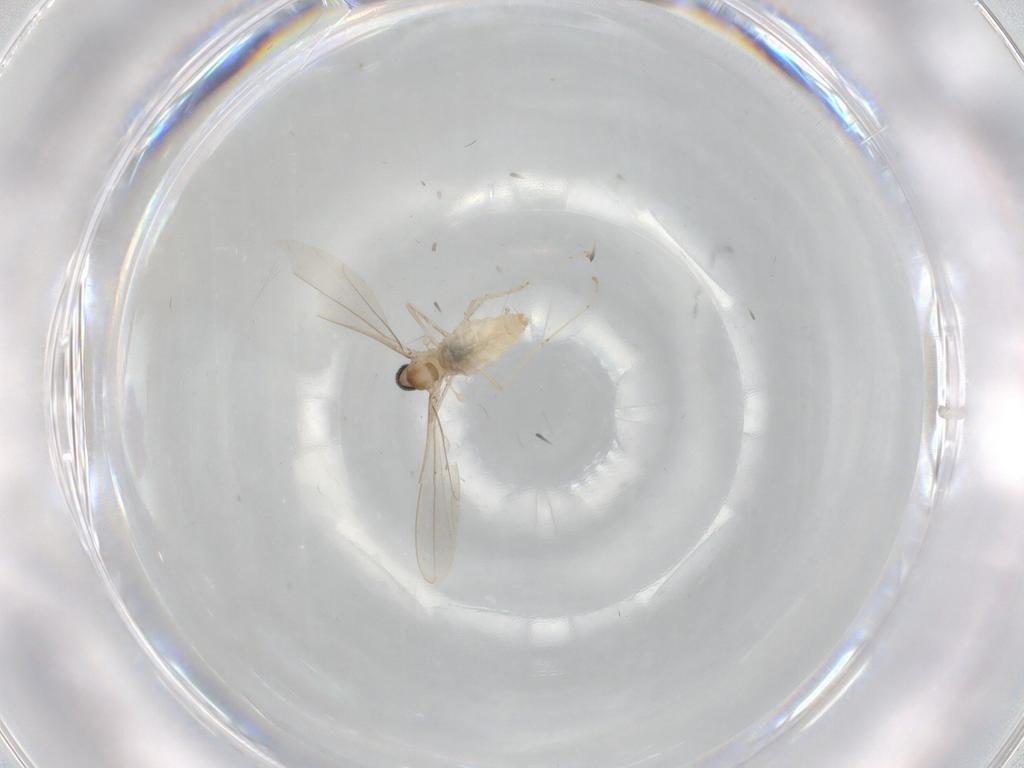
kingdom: Animalia
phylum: Arthropoda
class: Insecta
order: Diptera
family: Cecidomyiidae
